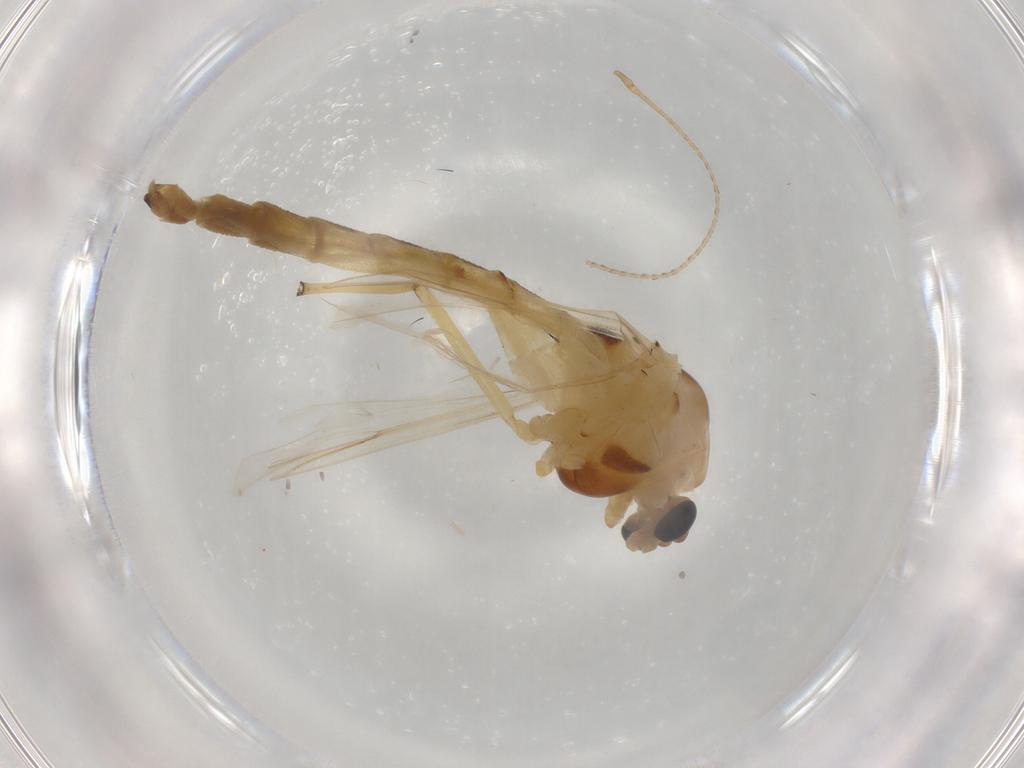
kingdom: Animalia
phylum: Arthropoda
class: Insecta
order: Diptera
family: Chironomidae
